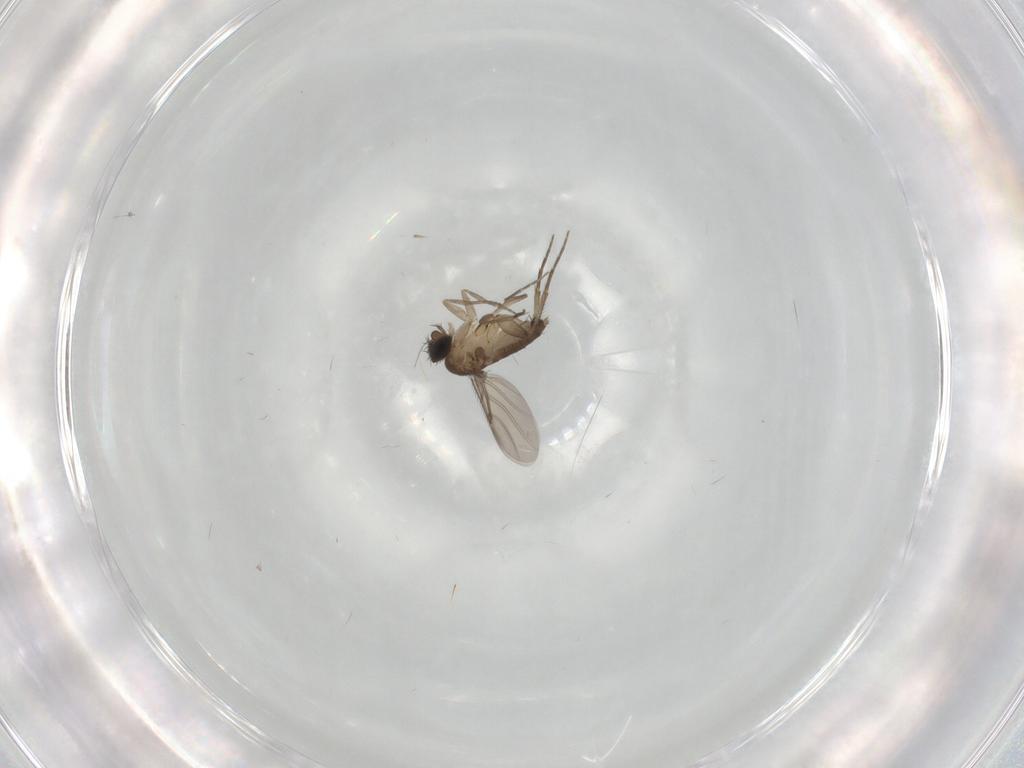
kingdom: Animalia
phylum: Arthropoda
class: Insecta
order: Diptera
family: Phoridae
